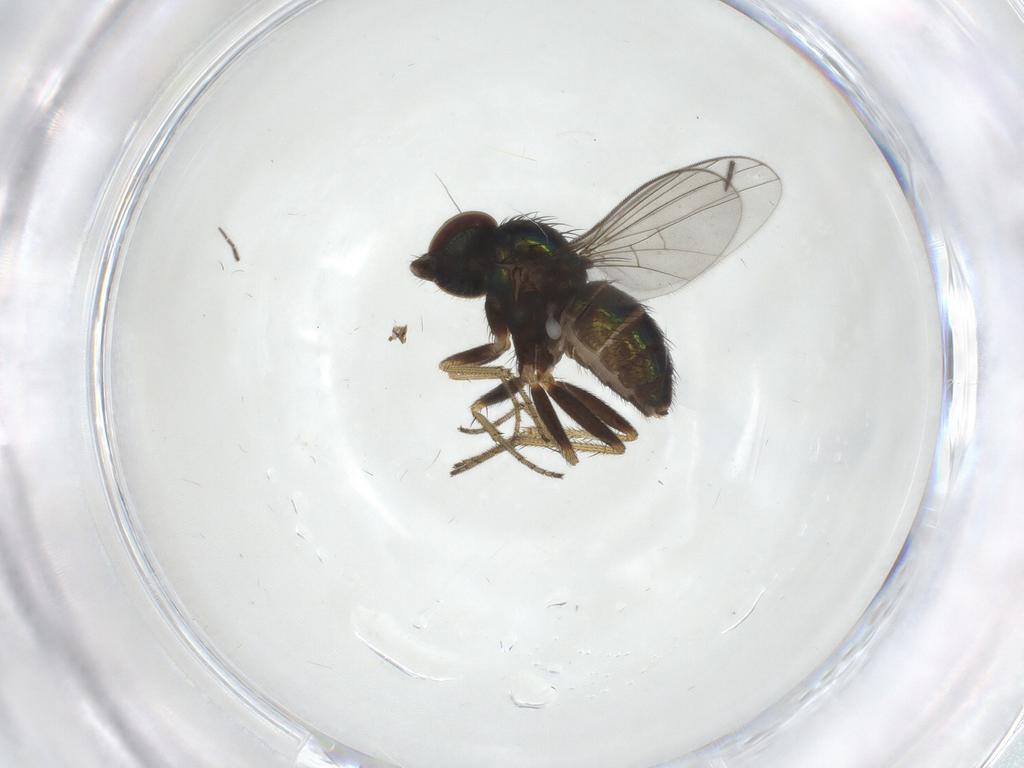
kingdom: Animalia
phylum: Arthropoda
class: Insecta
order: Diptera
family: Sciaridae
